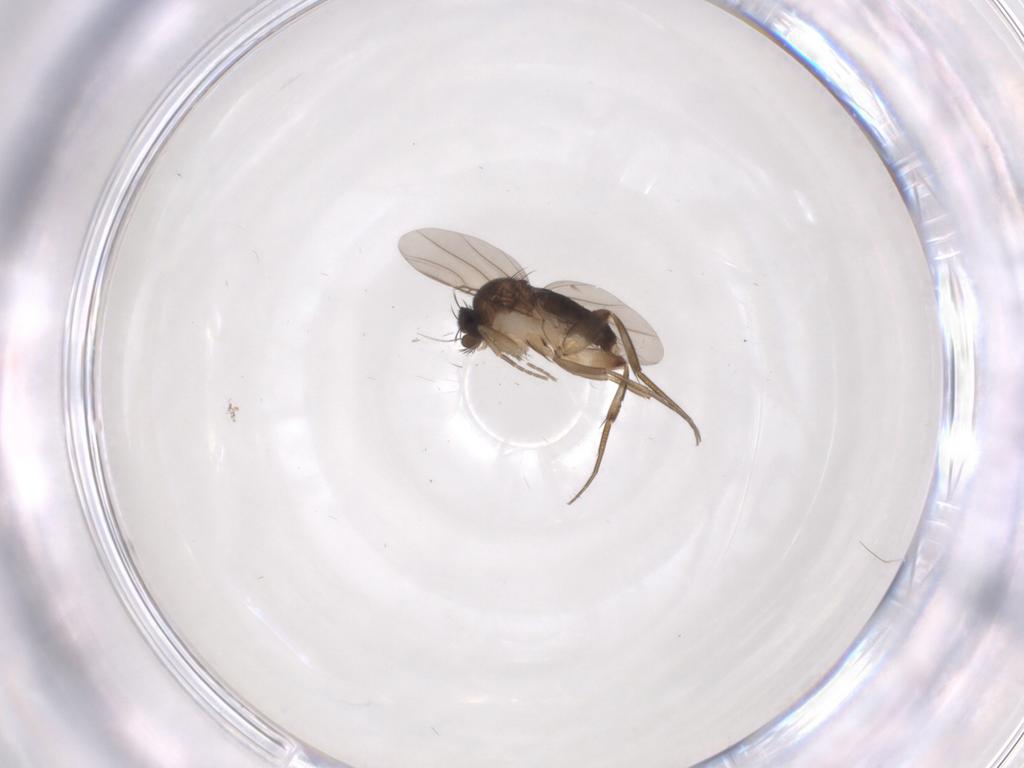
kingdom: Animalia
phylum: Arthropoda
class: Insecta
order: Diptera
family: Phoridae
